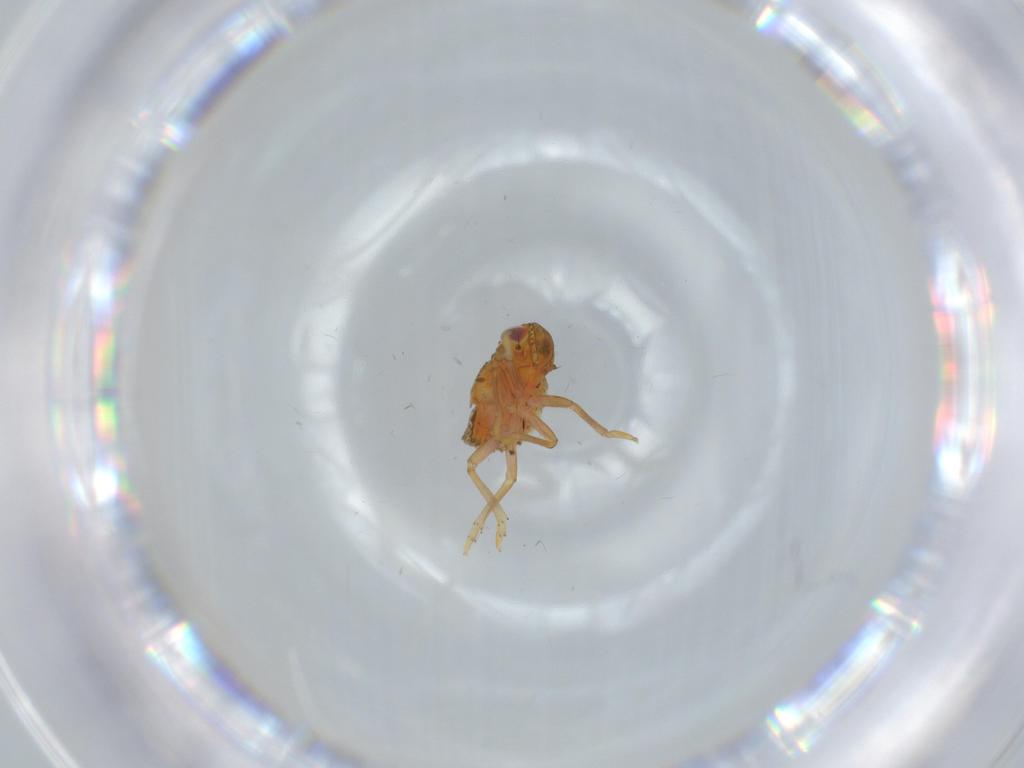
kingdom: Animalia
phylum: Arthropoda
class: Insecta
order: Hemiptera
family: Issidae
